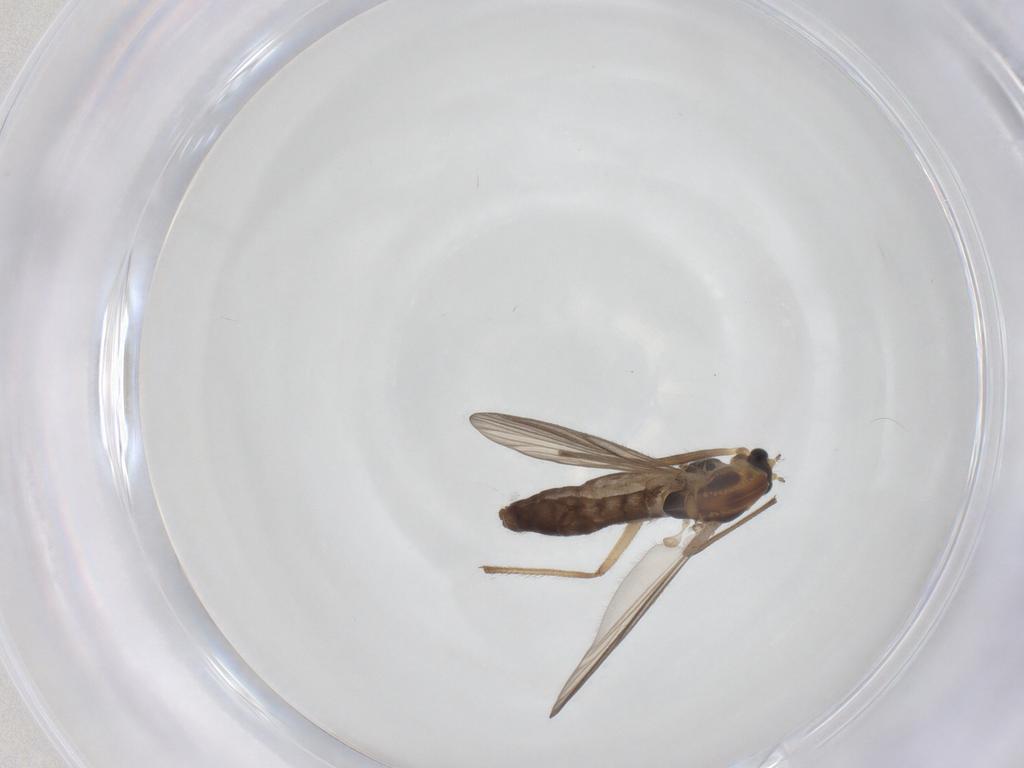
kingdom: Animalia
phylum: Arthropoda
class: Insecta
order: Diptera
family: Chironomidae
